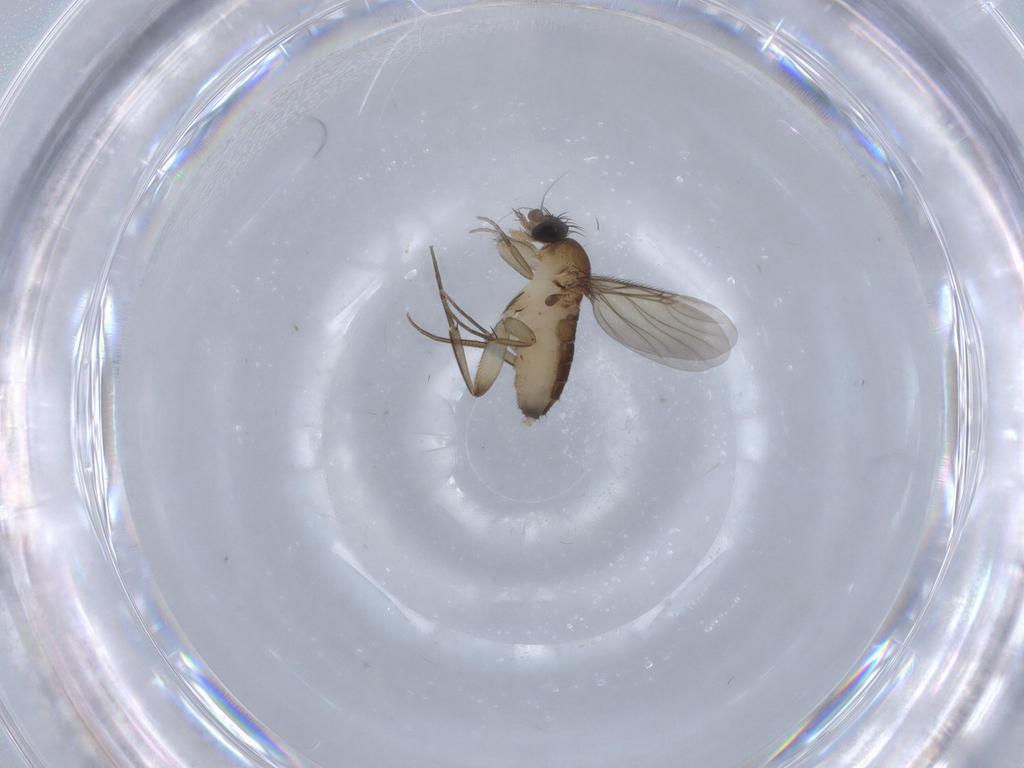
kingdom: Animalia
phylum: Arthropoda
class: Insecta
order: Diptera
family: Phoridae
